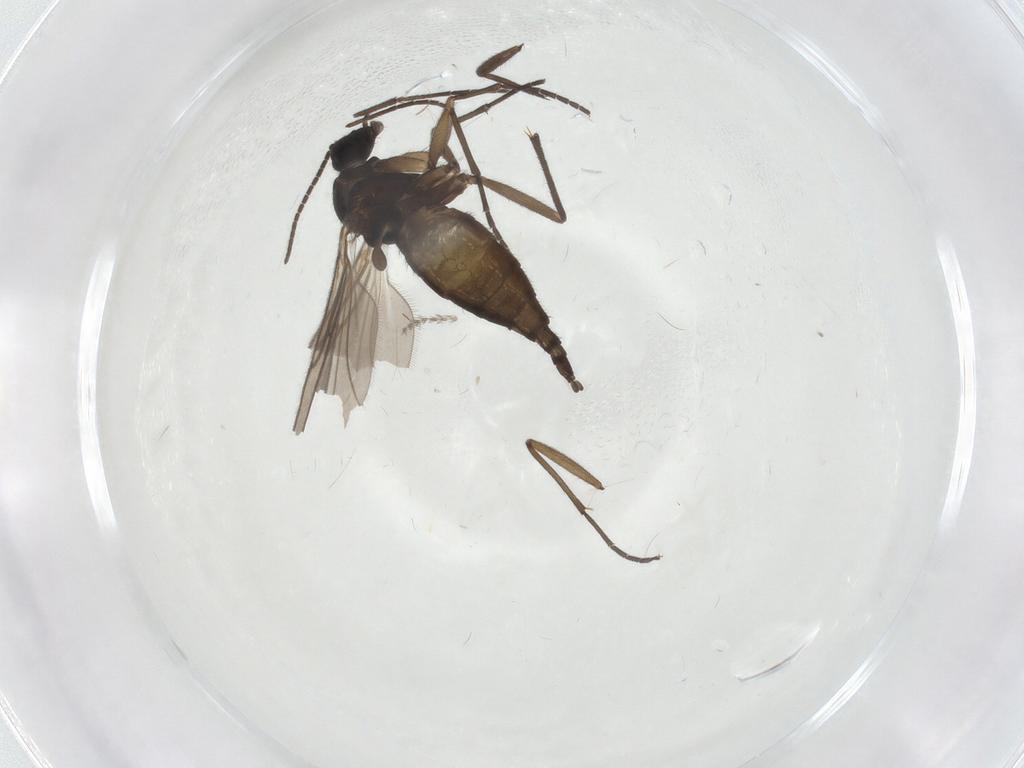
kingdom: Animalia
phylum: Arthropoda
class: Insecta
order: Diptera
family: Sciaridae
